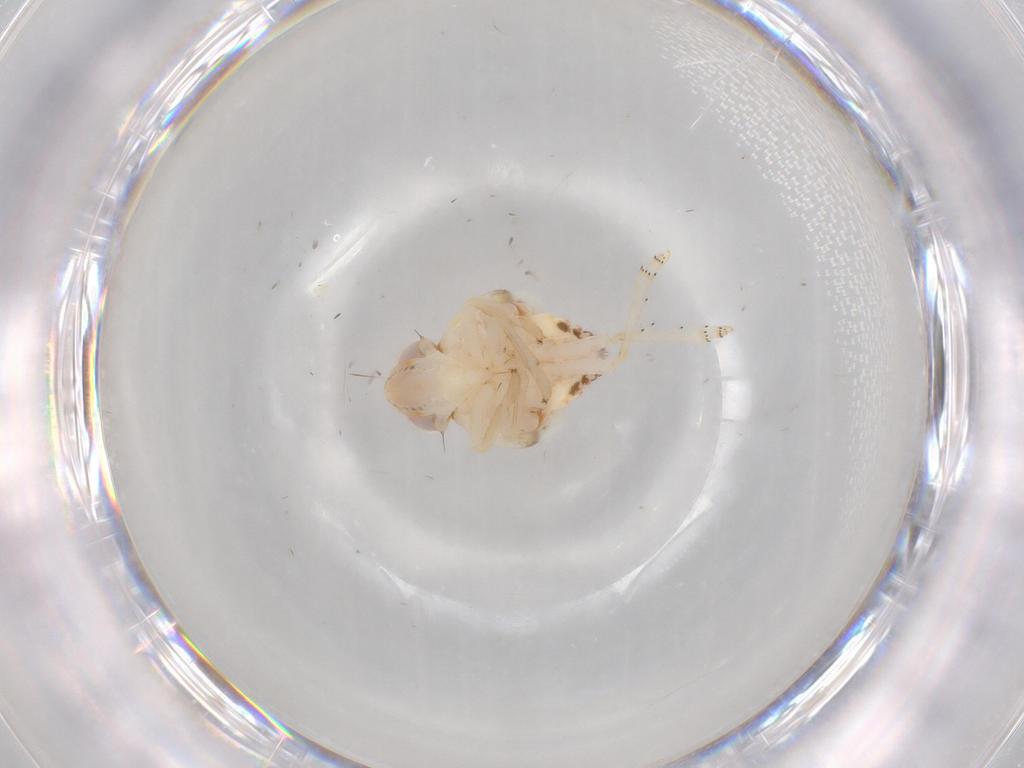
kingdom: Animalia
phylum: Arthropoda
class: Insecta
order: Hemiptera
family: Nogodinidae
